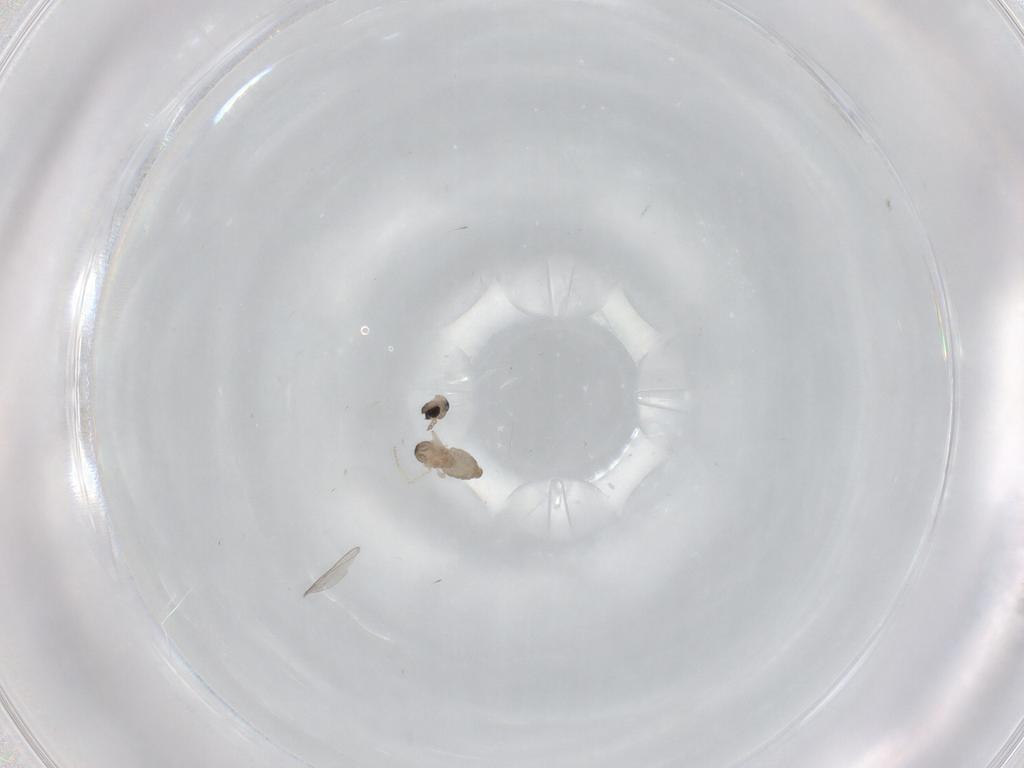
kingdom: Animalia
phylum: Arthropoda
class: Insecta
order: Diptera
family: Cecidomyiidae
